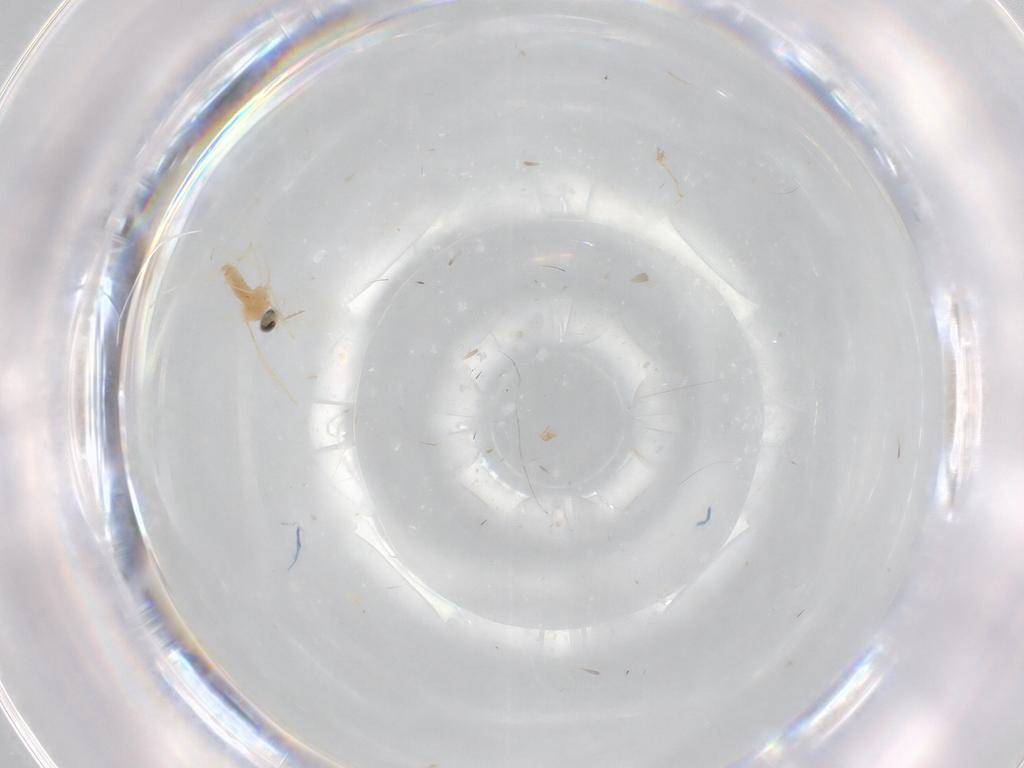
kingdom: Animalia
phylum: Arthropoda
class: Insecta
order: Diptera
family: Cecidomyiidae
